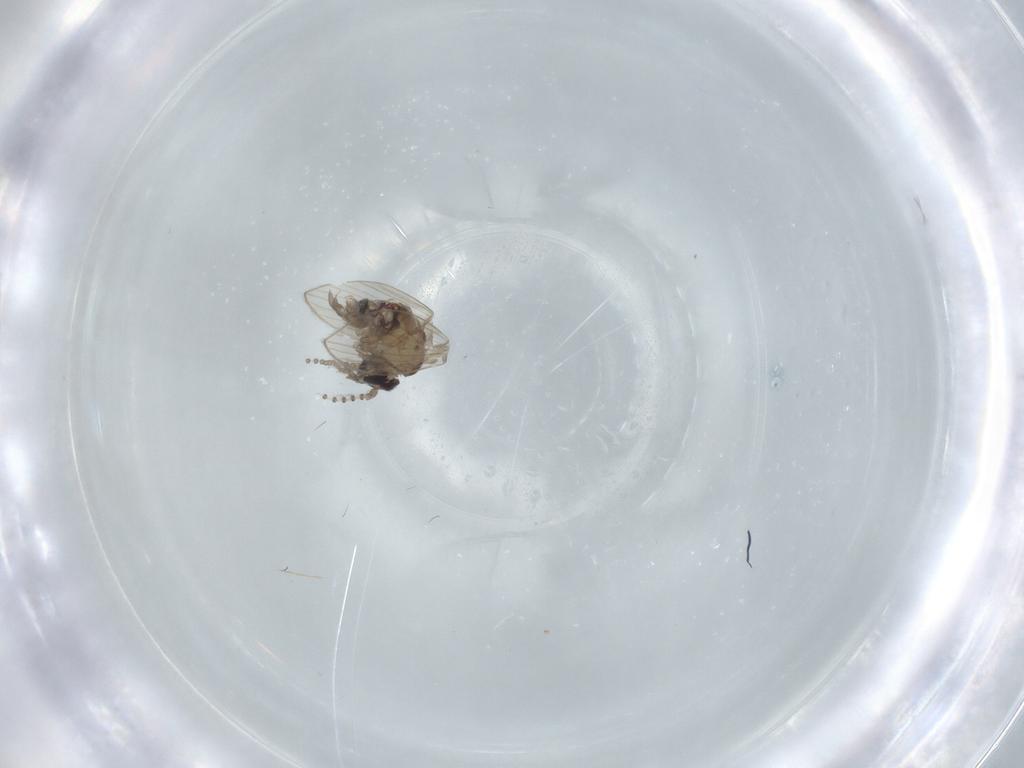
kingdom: Animalia
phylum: Arthropoda
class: Insecta
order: Diptera
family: Psychodidae
